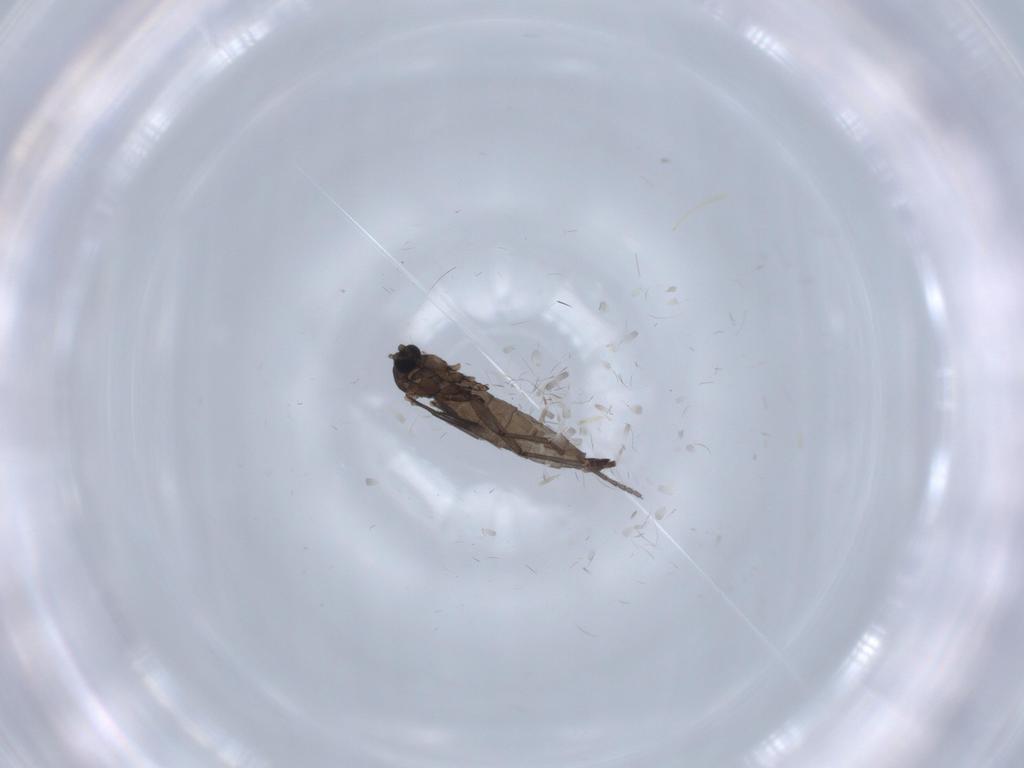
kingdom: Animalia
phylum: Arthropoda
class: Insecta
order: Diptera
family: Sciaridae
